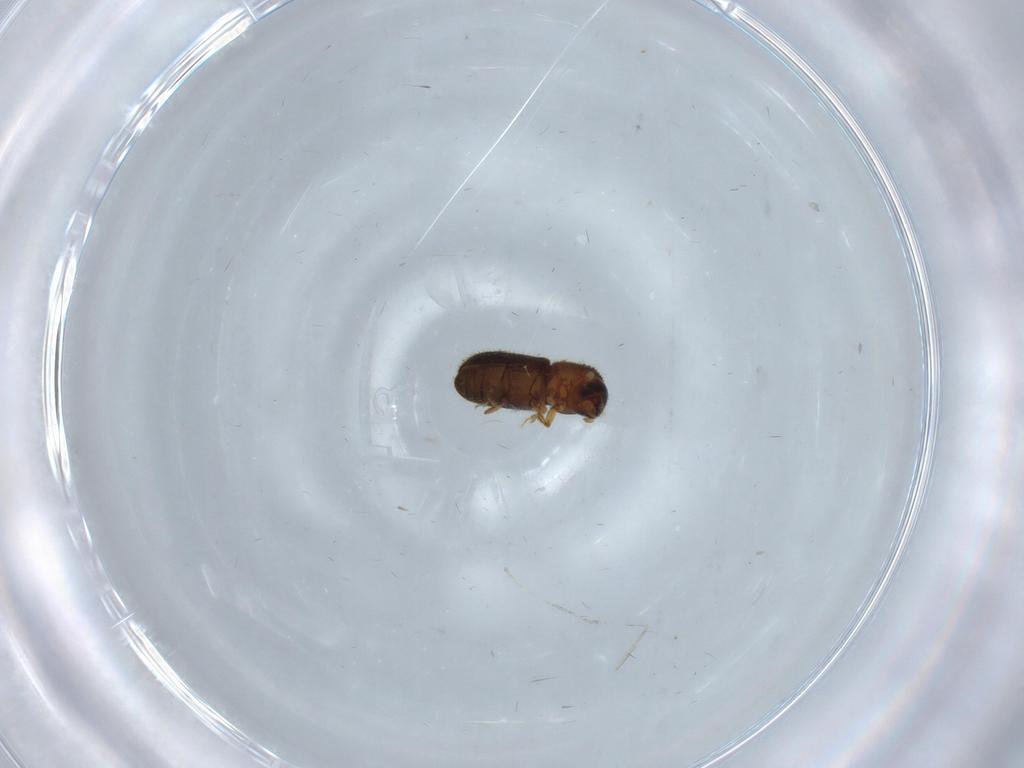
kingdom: Animalia
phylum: Arthropoda
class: Insecta
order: Coleoptera
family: Chrysomelidae
